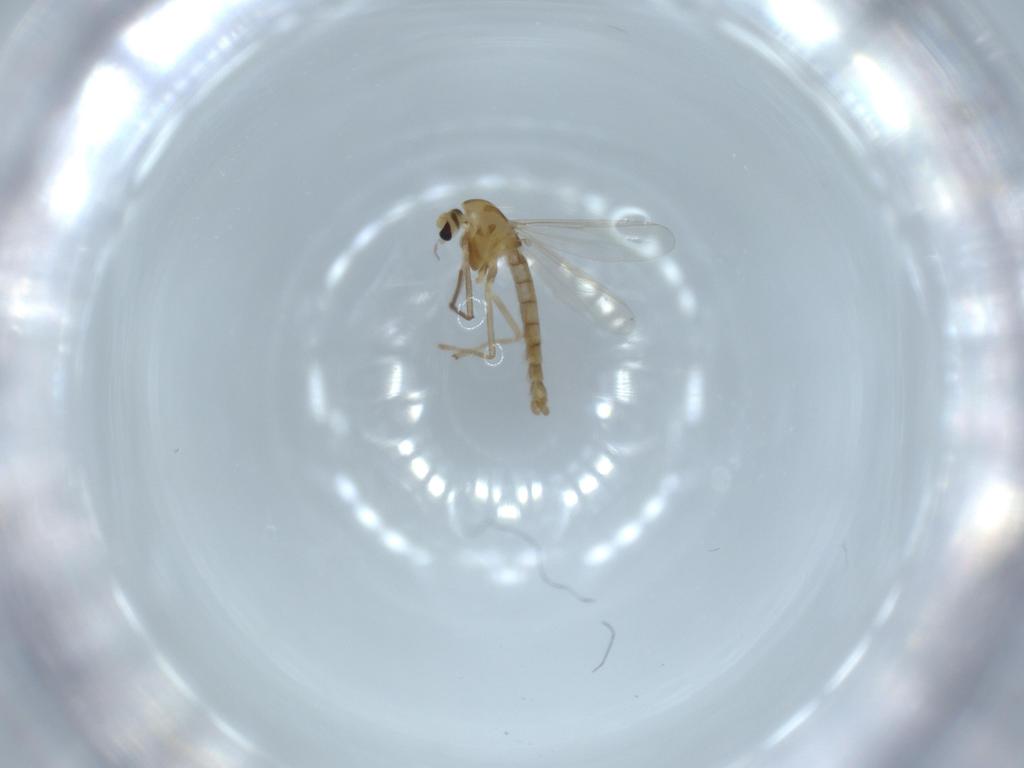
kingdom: Animalia
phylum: Arthropoda
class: Insecta
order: Diptera
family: Chironomidae
